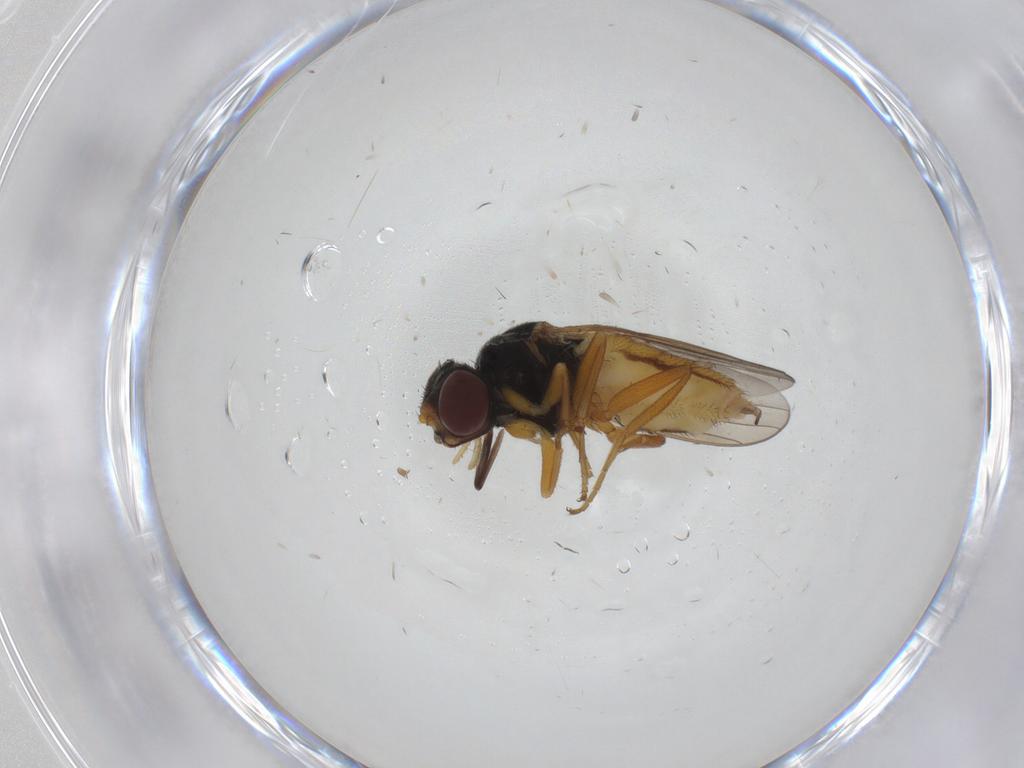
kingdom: Animalia
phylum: Arthropoda
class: Insecta
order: Diptera
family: Chloropidae
